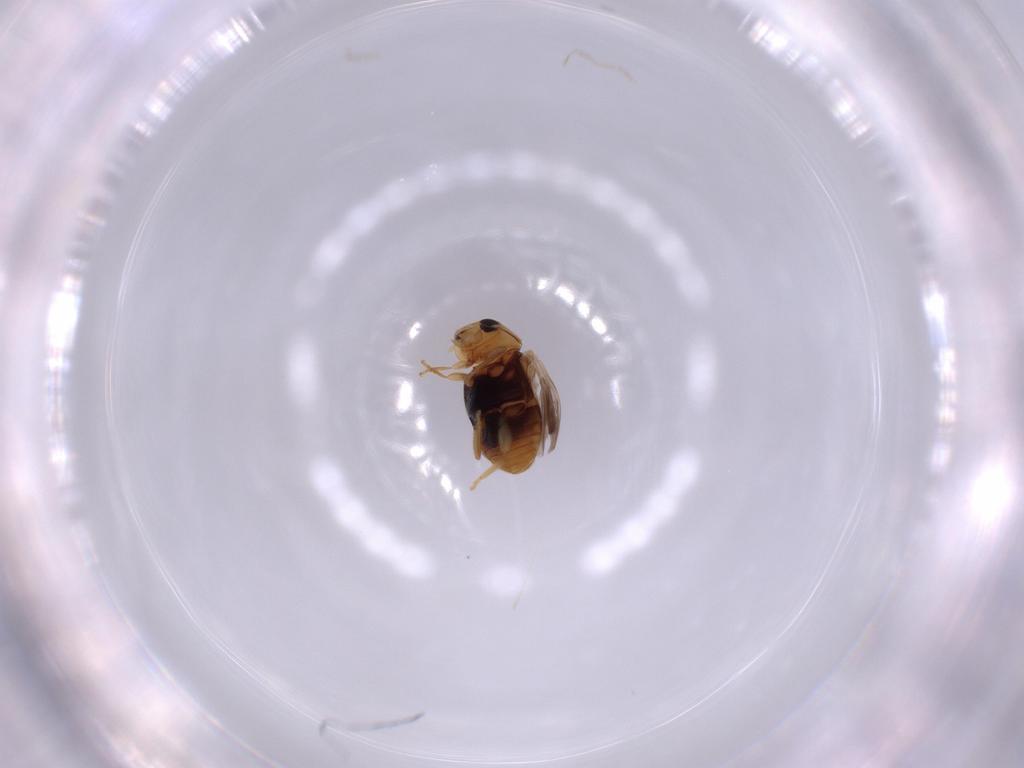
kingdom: Animalia
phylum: Arthropoda
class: Insecta
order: Coleoptera
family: Coccinellidae
